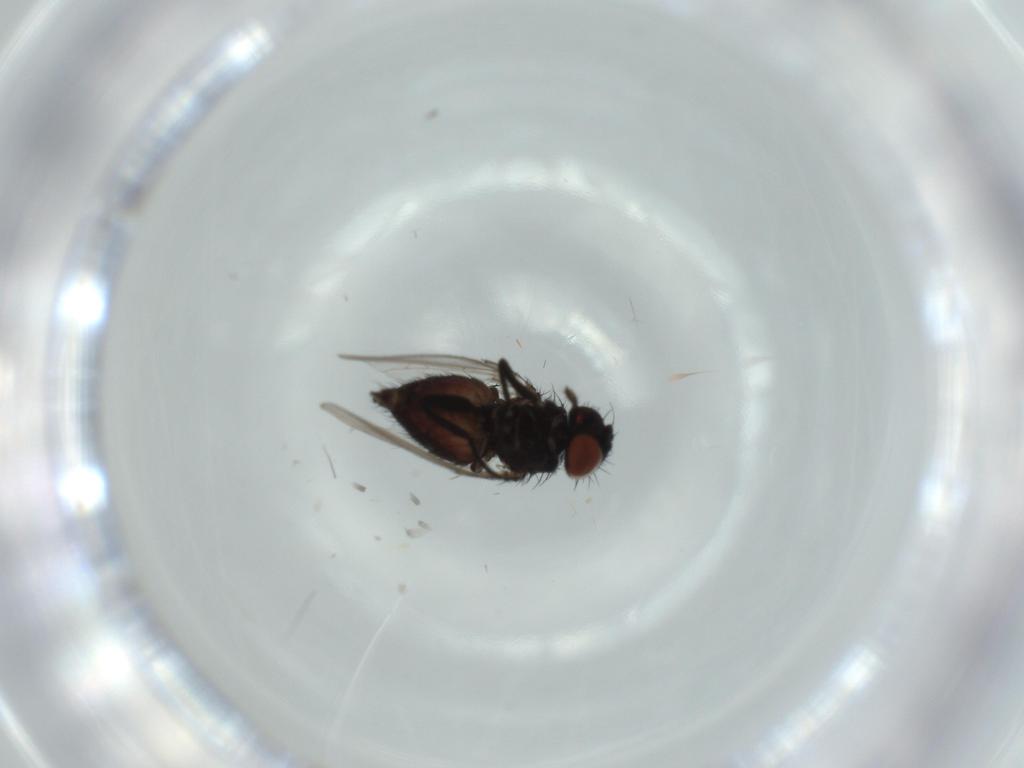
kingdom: Animalia
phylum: Arthropoda
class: Insecta
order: Diptera
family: Milichiidae
